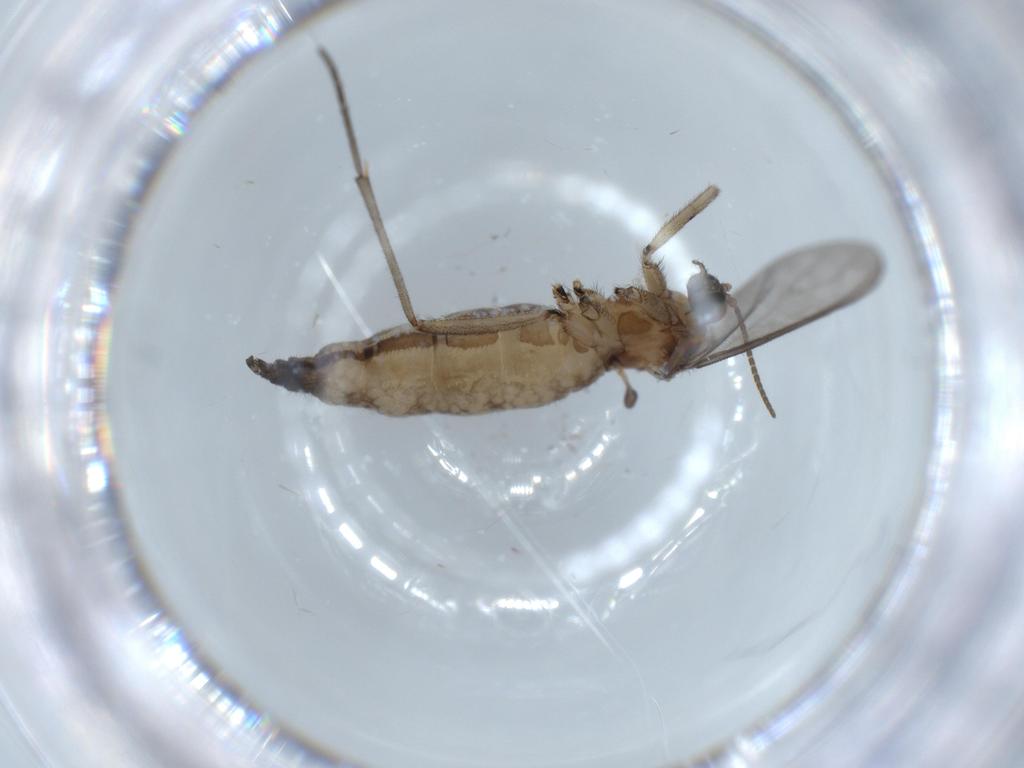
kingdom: Animalia
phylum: Arthropoda
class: Insecta
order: Diptera
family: Sciaridae
